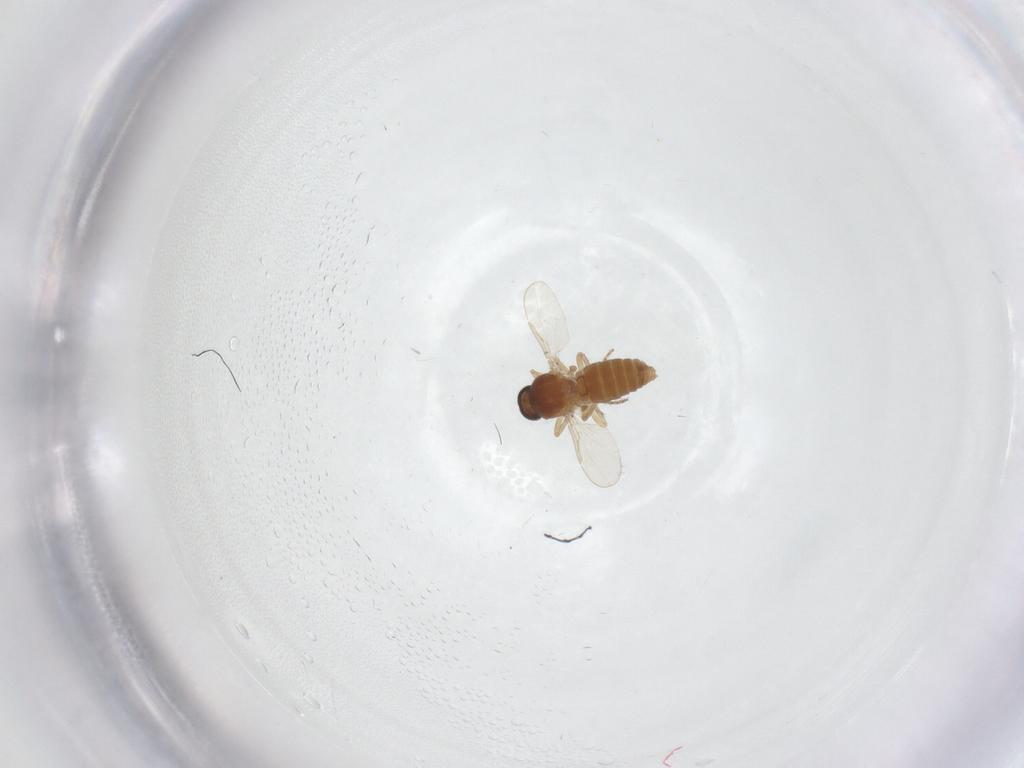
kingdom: Animalia
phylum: Arthropoda
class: Insecta
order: Diptera
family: Ceratopogonidae
